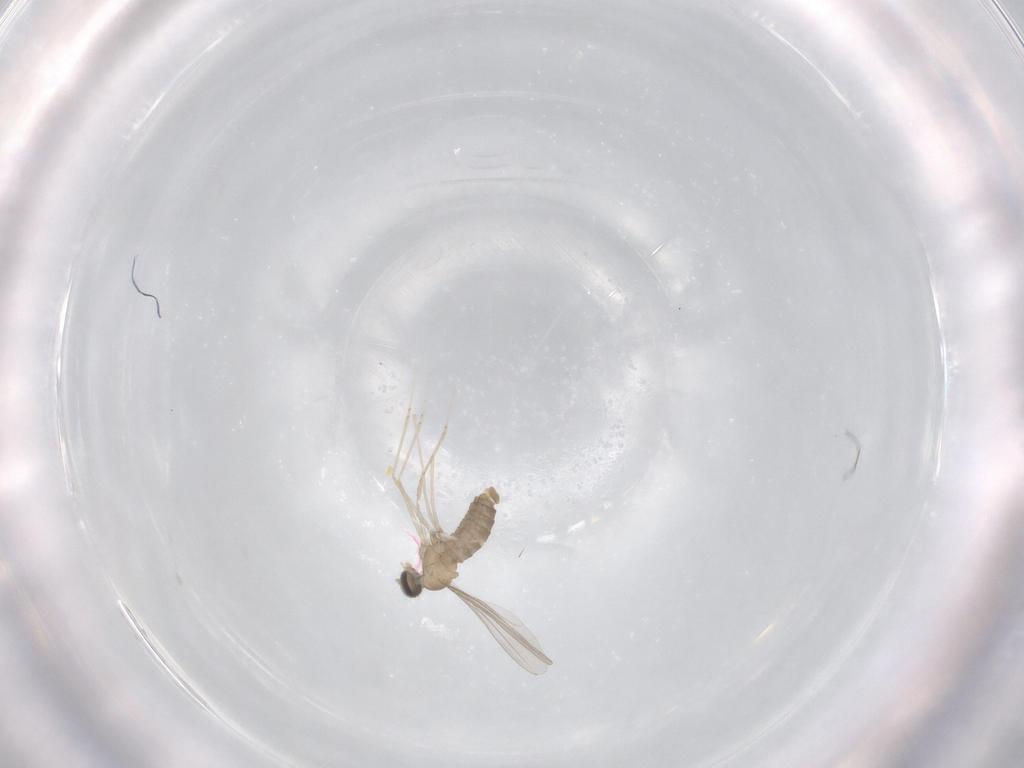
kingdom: Animalia
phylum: Arthropoda
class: Insecta
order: Diptera
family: Cecidomyiidae
